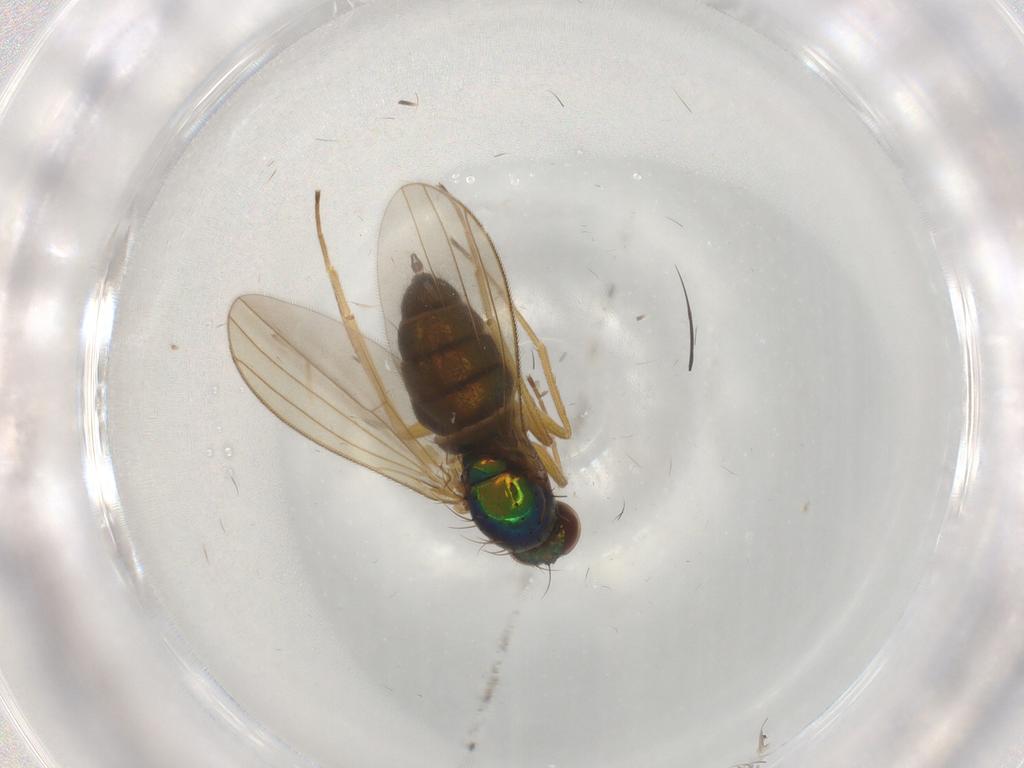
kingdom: Animalia
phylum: Arthropoda
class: Insecta
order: Diptera
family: Dolichopodidae
